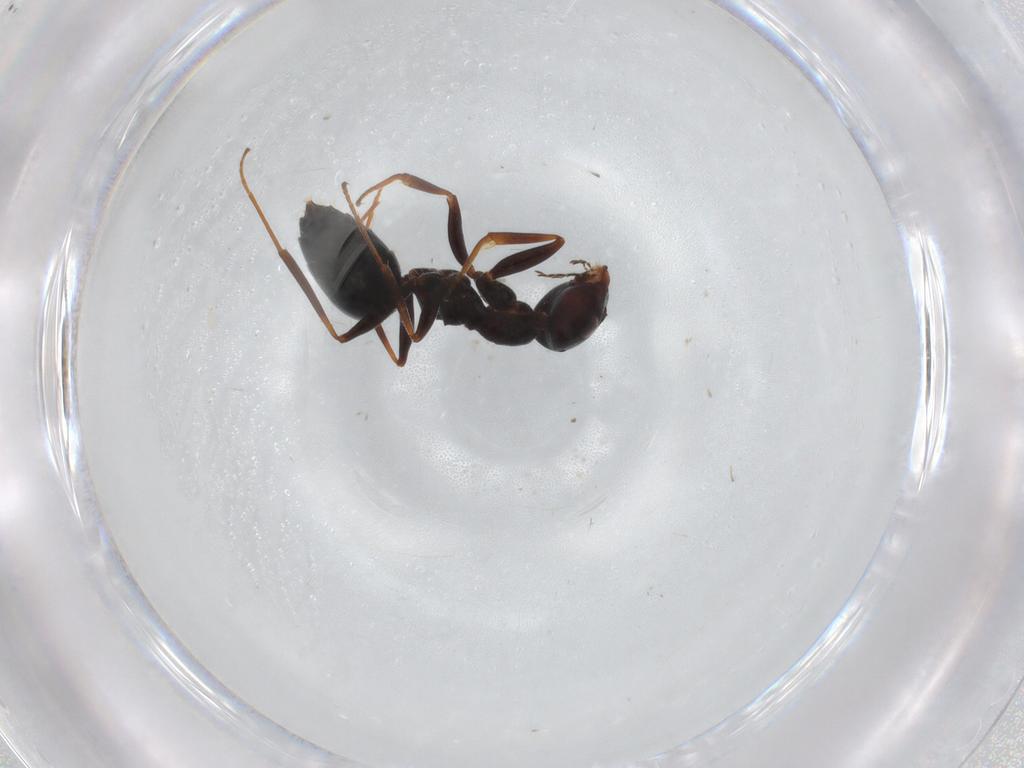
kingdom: Animalia
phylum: Arthropoda
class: Insecta
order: Hymenoptera
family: Formicidae
